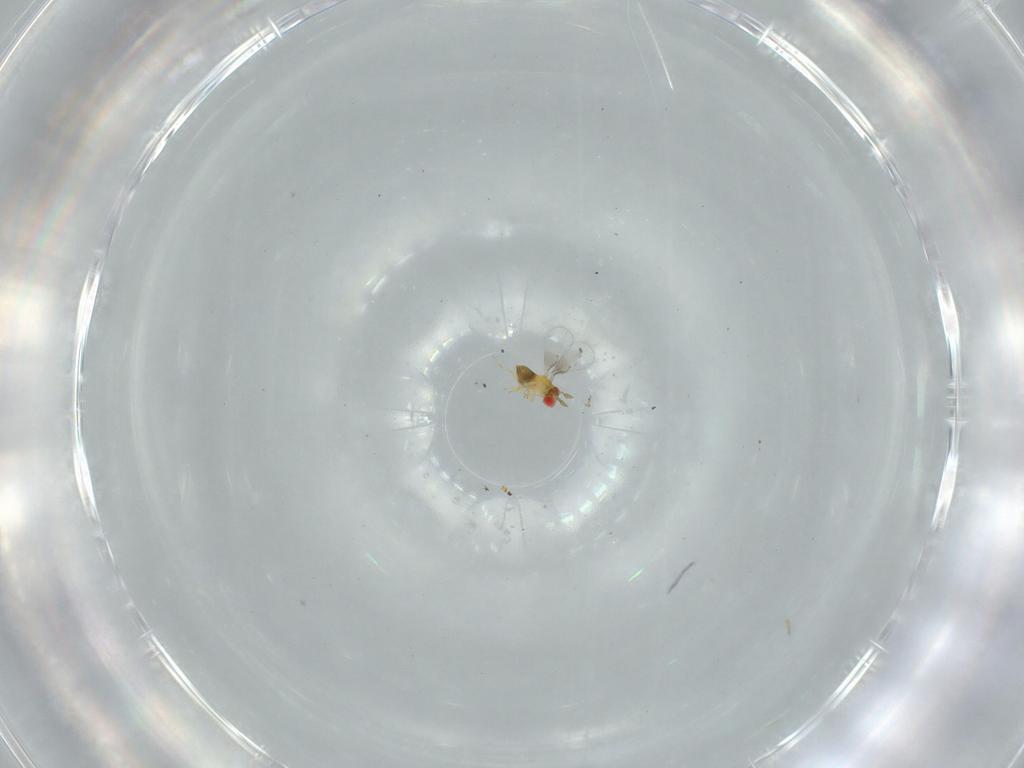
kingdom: Animalia
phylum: Arthropoda
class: Insecta
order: Hymenoptera
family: Trichogrammatidae
